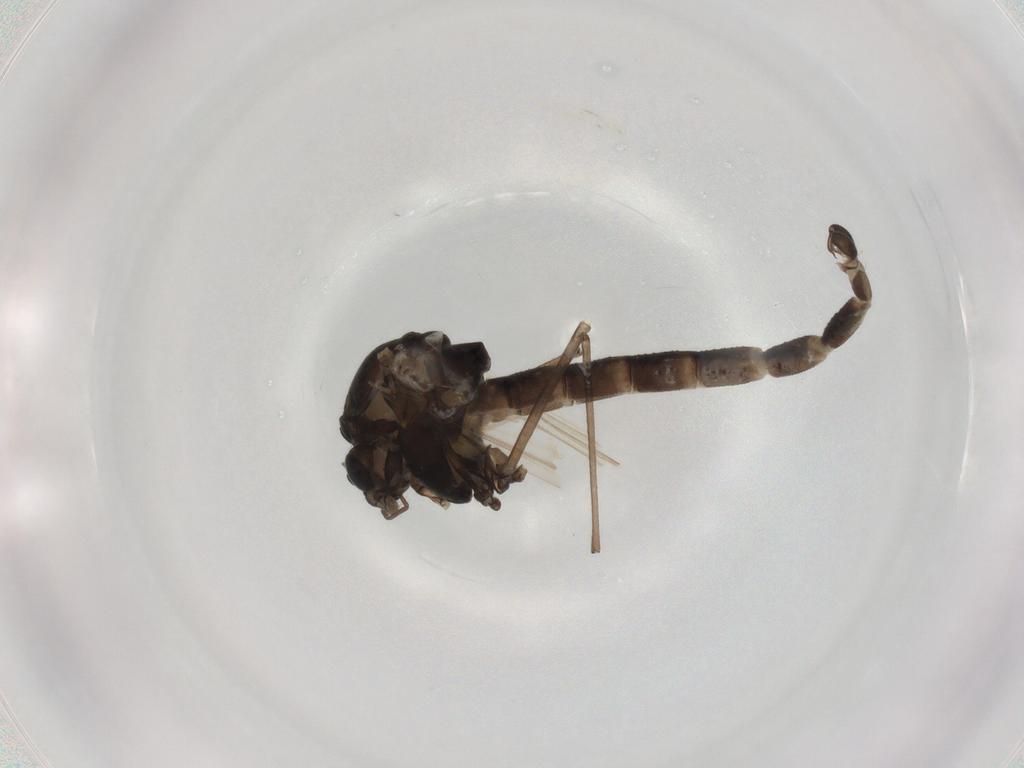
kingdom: Animalia
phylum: Arthropoda
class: Insecta
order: Diptera
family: Chironomidae
